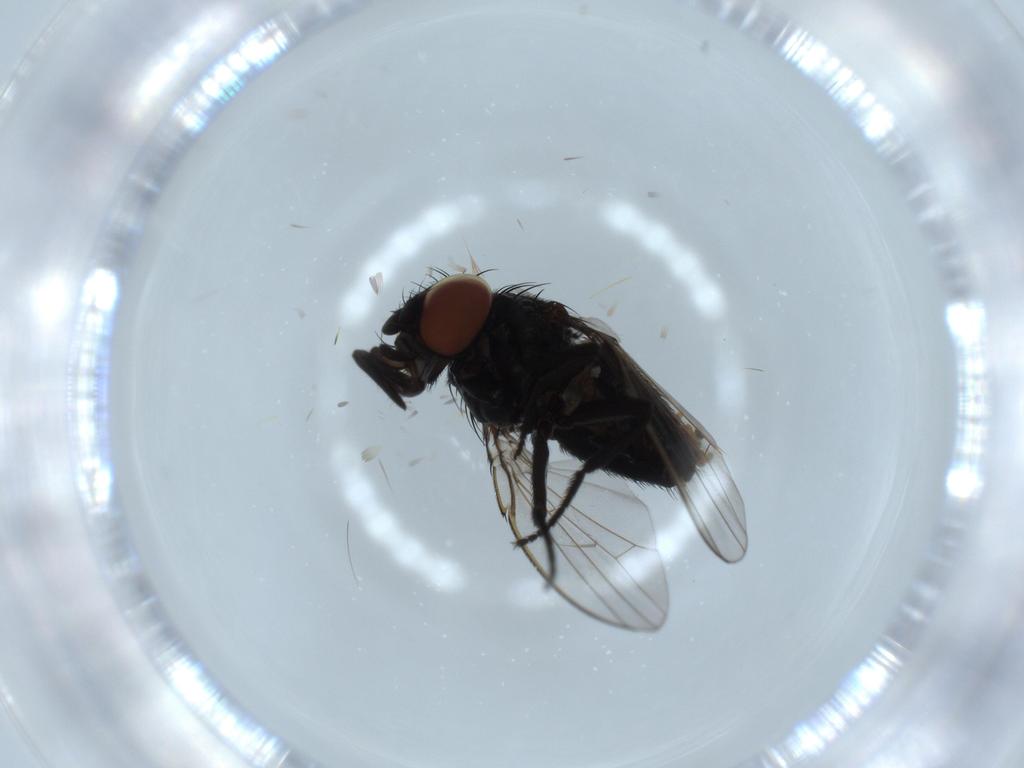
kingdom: Animalia
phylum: Arthropoda
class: Insecta
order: Diptera
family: Milichiidae
